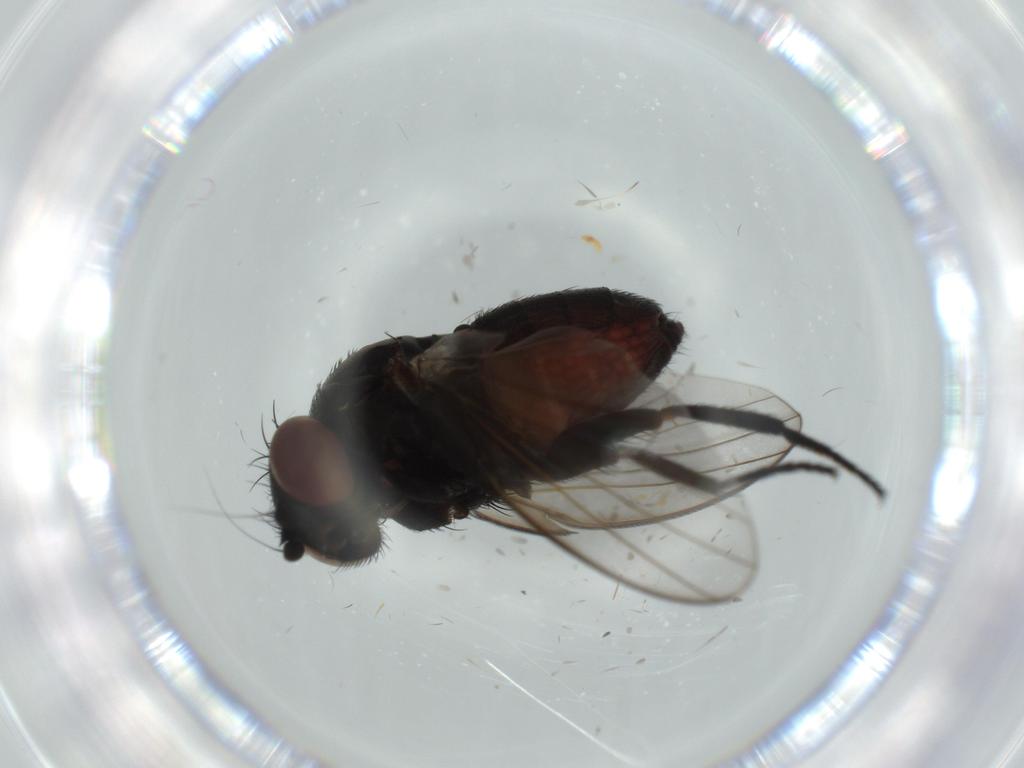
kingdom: Animalia
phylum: Arthropoda
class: Insecta
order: Diptera
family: Milichiidae
